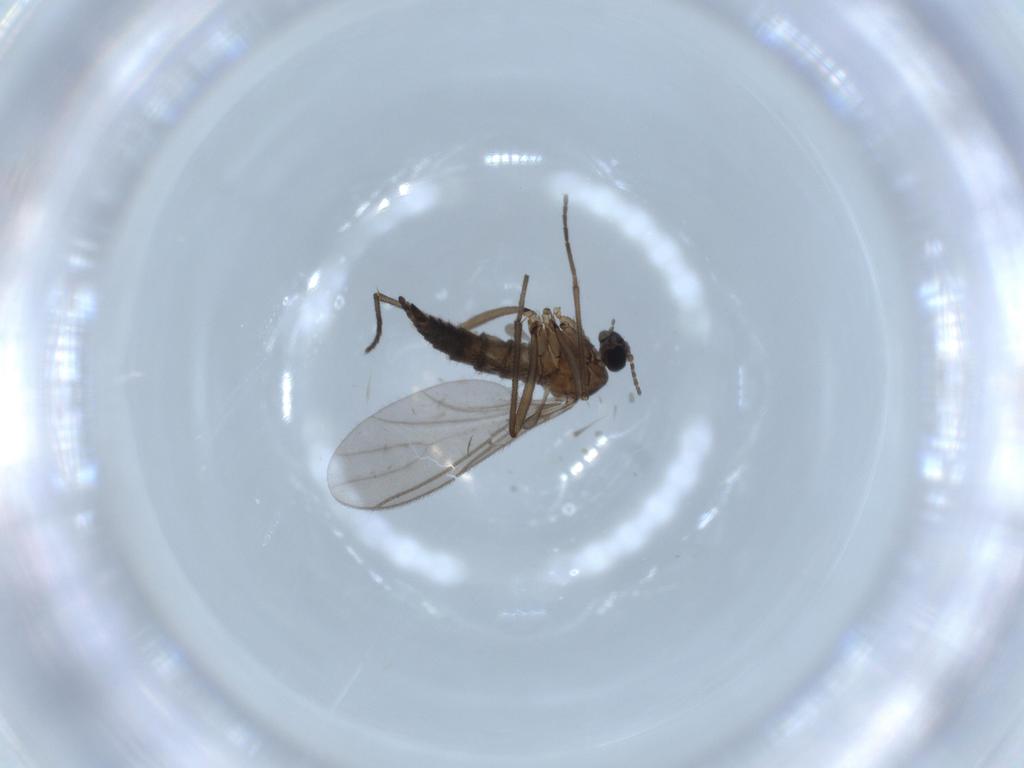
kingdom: Animalia
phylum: Arthropoda
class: Insecta
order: Diptera
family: Sciaridae
